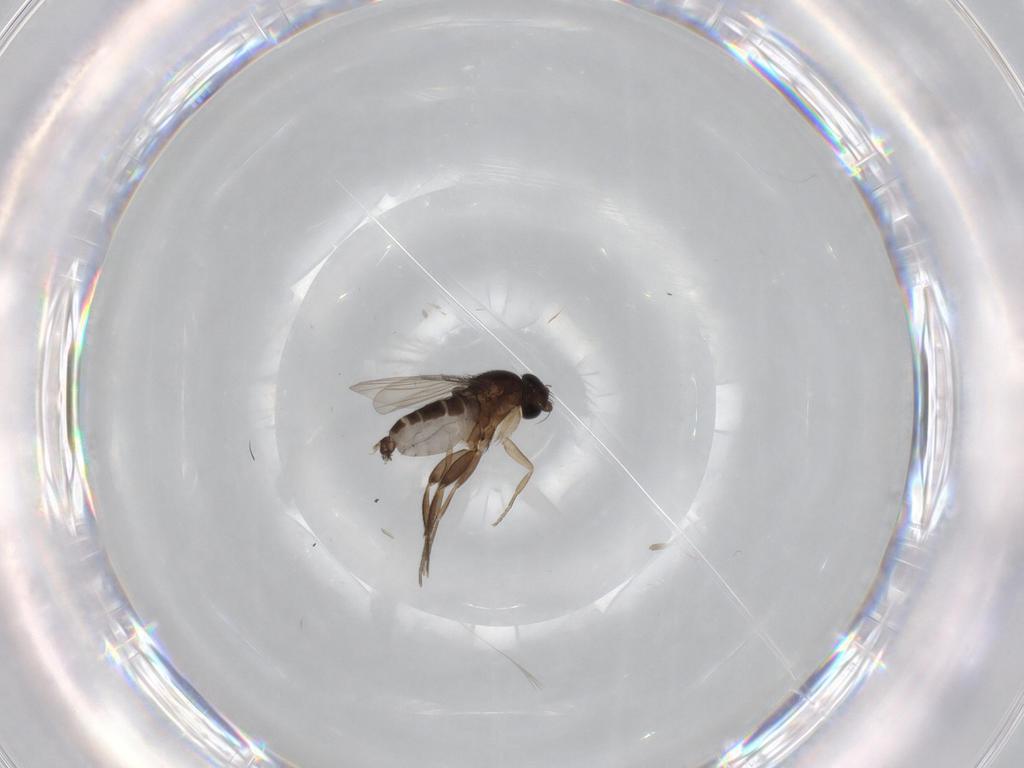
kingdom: Animalia
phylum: Arthropoda
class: Insecta
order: Diptera
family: Phoridae
